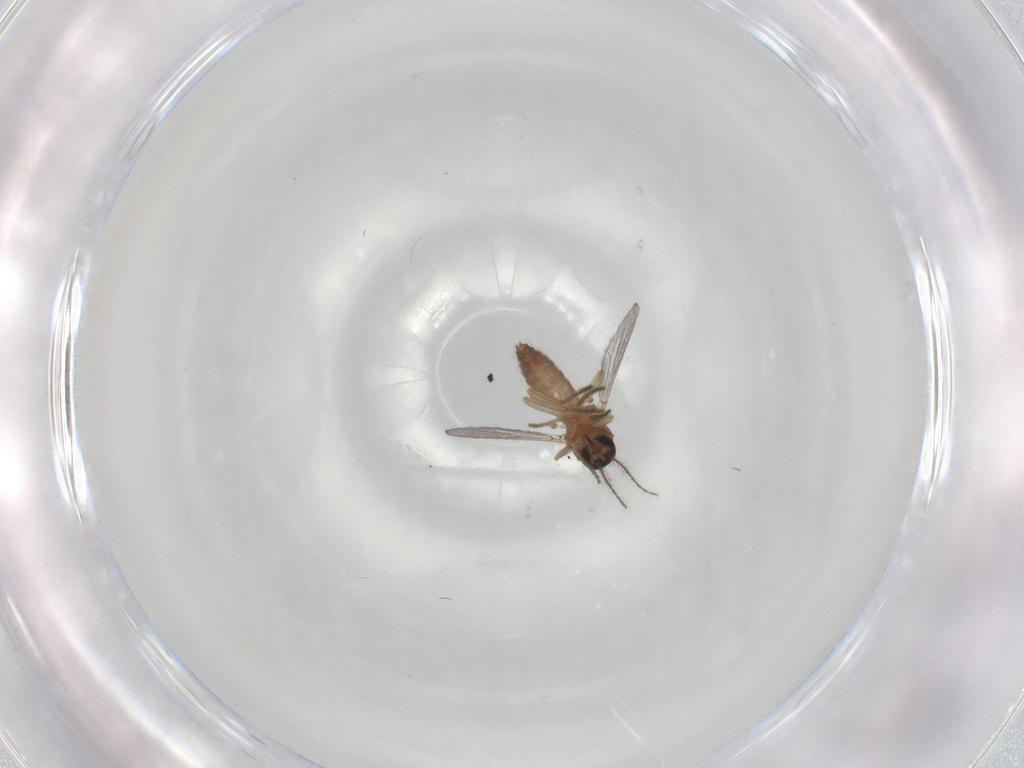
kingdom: Animalia
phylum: Arthropoda
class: Insecta
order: Diptera
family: Ceratopogonidae
